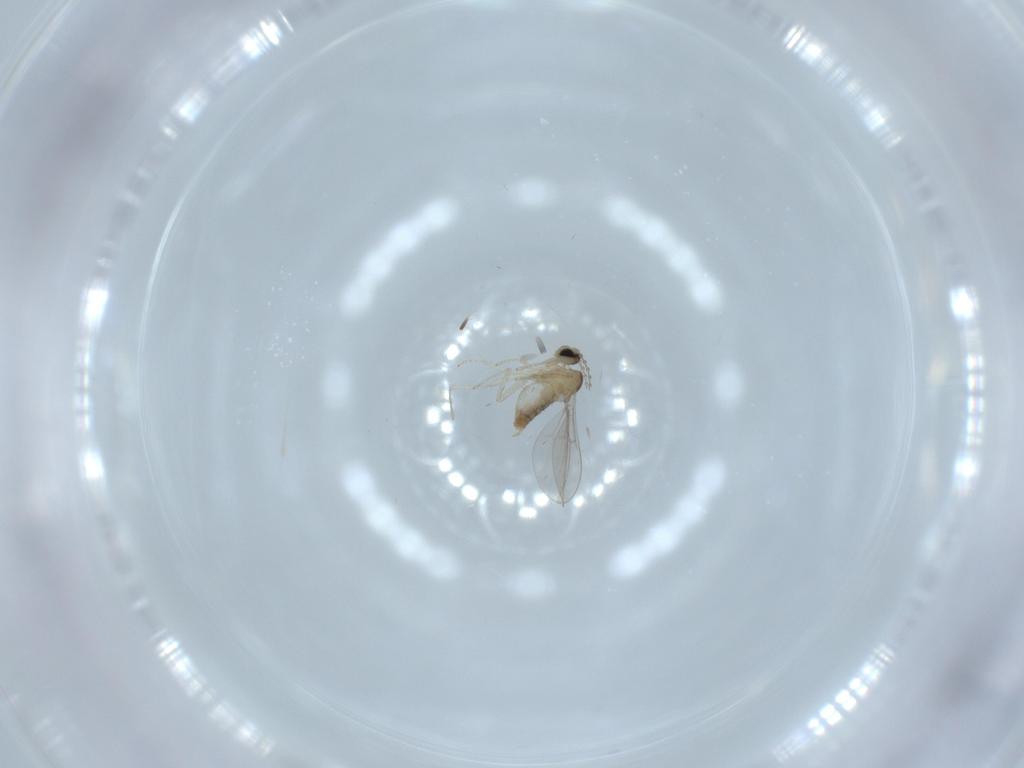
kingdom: Animalia
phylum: Arthropoda
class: Insecta
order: Diptera
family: Cecidomyiidae
